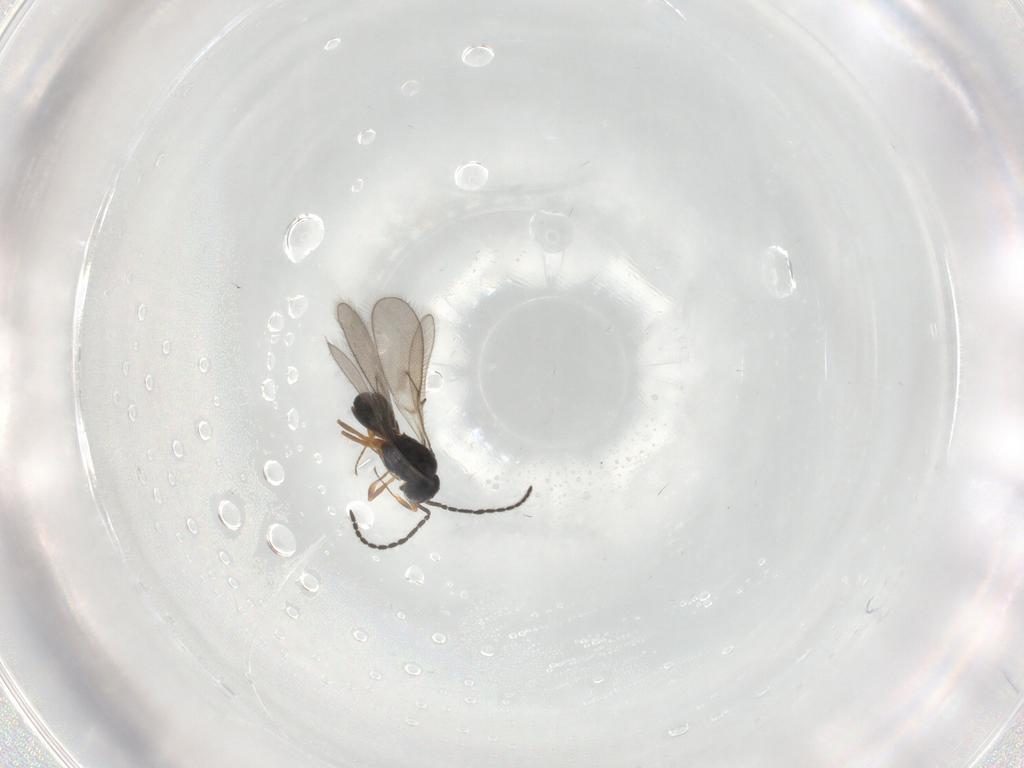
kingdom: Animalia
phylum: Arthropoda
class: Insecta
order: Hymenoptera
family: Scelionidae
